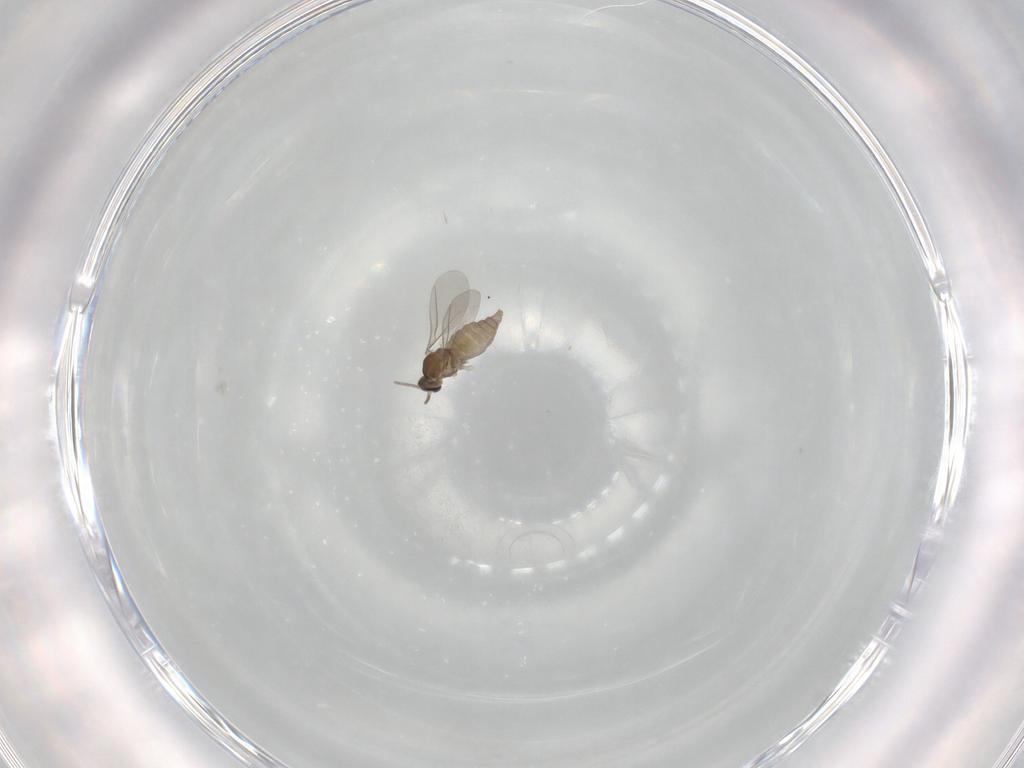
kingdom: Animalia
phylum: Arthropoda
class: Insecta
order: Diptera
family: Cecidomyiidae
